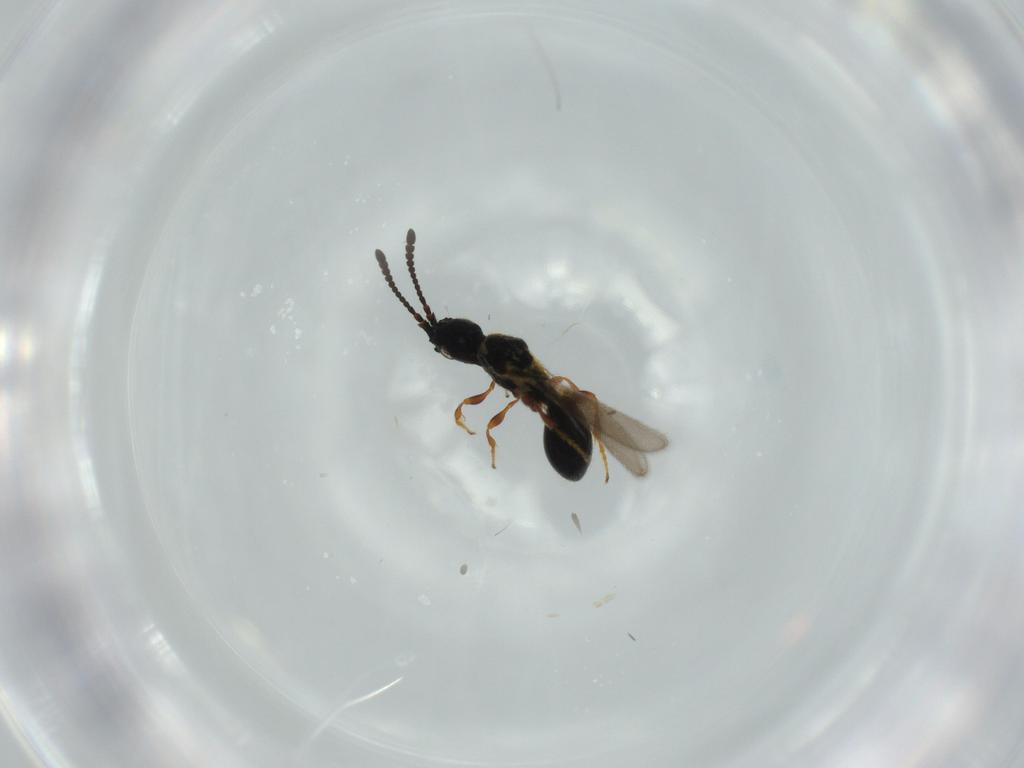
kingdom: Animalia
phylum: Arthropoda
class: Insecta
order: Hymenoptera
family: Diapriidae
